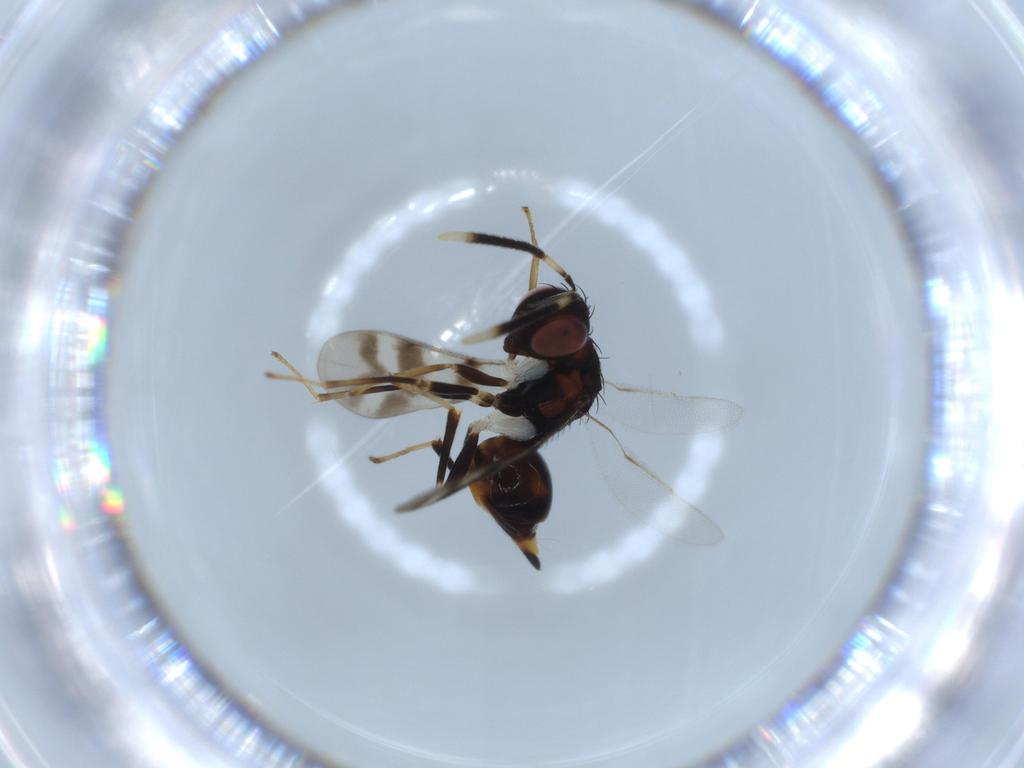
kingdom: Animalia
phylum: Arthropoda
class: Insecta
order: Hymenoptera
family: Diparidae
